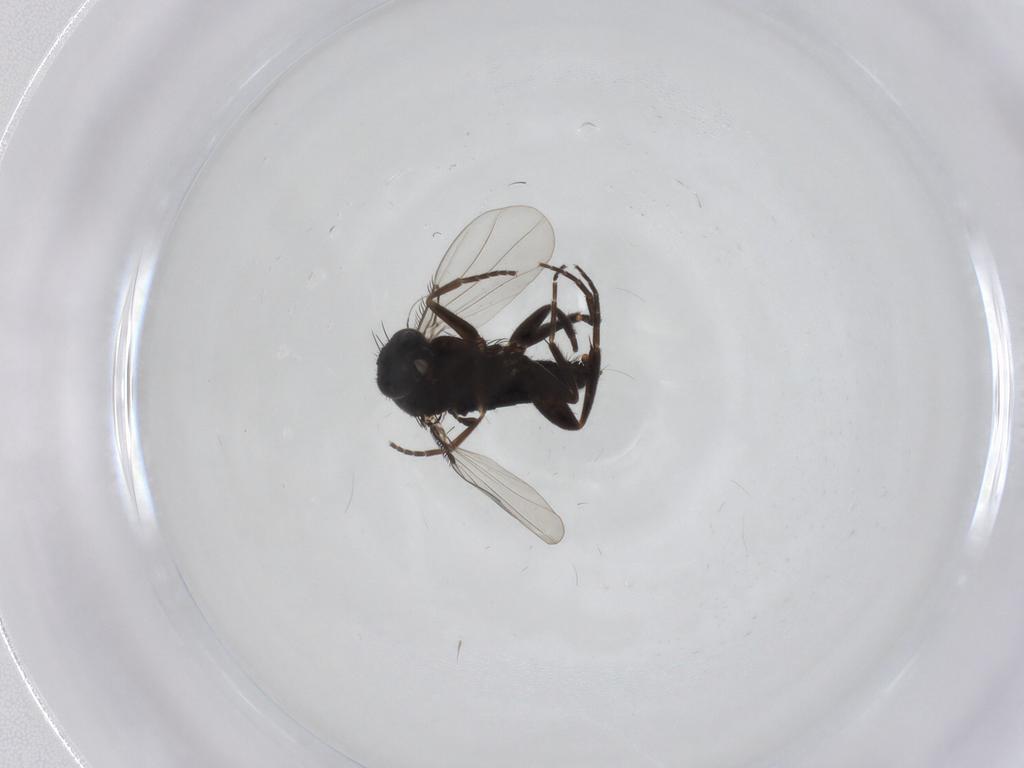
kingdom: Animalia
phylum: Arthropoda
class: Insecta
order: Diptera
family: Phoridae
